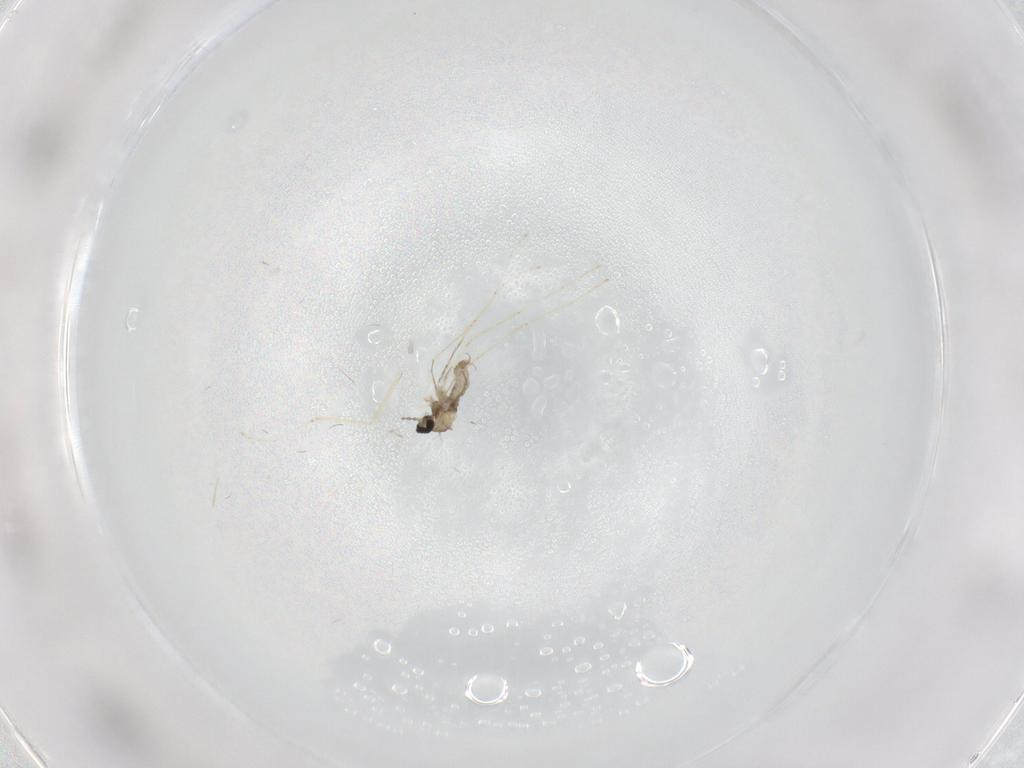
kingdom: Animalia
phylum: Arthropoda
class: Insecta
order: Diptera
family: Cecidomyiidae
